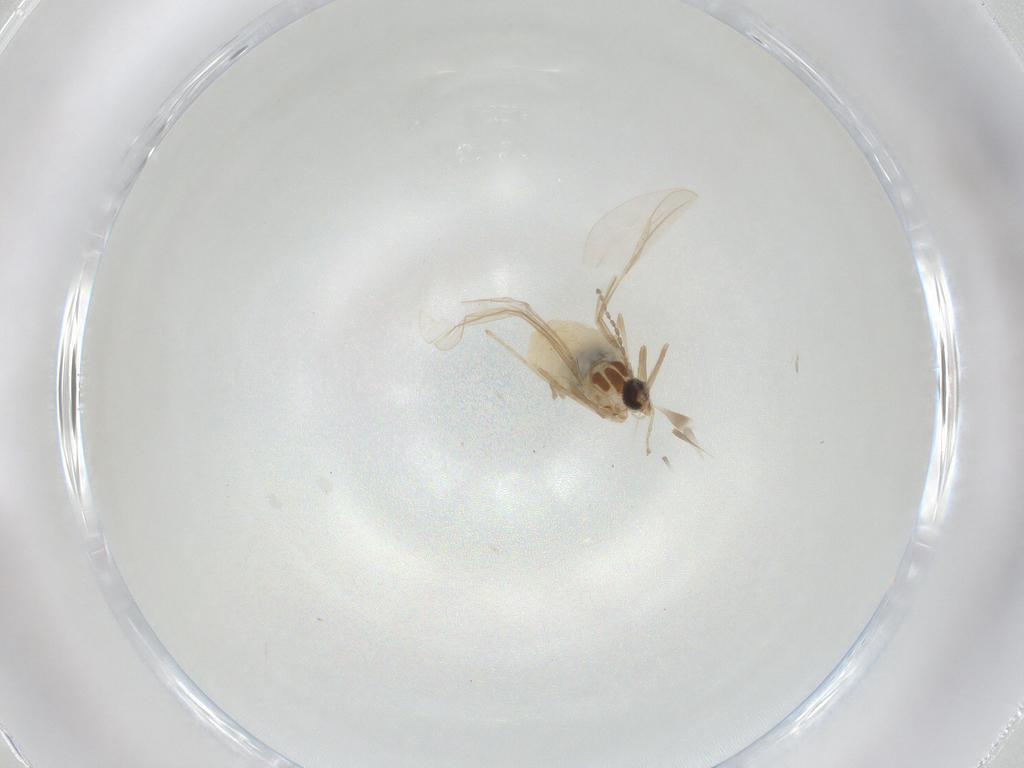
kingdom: Animalia
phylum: Arthropoda
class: Insecta
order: Diptera
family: Cecidomyiidae
